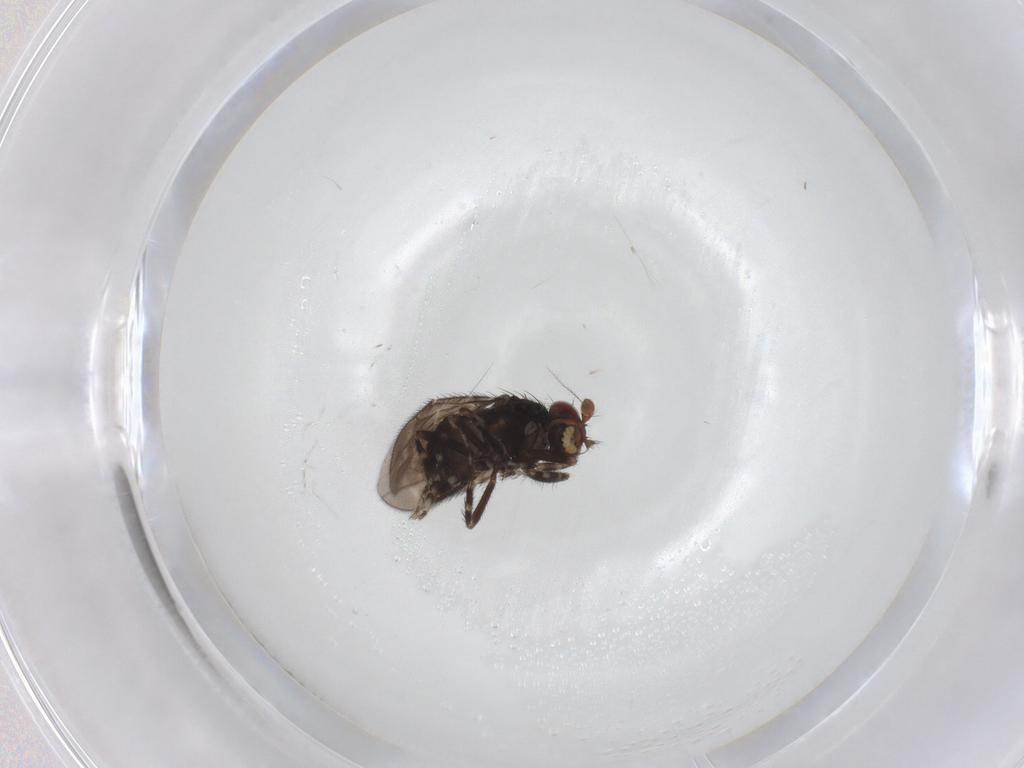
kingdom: Animalia
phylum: Arthropoda
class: Insecta
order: Diptera
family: Sphaeroceridae
